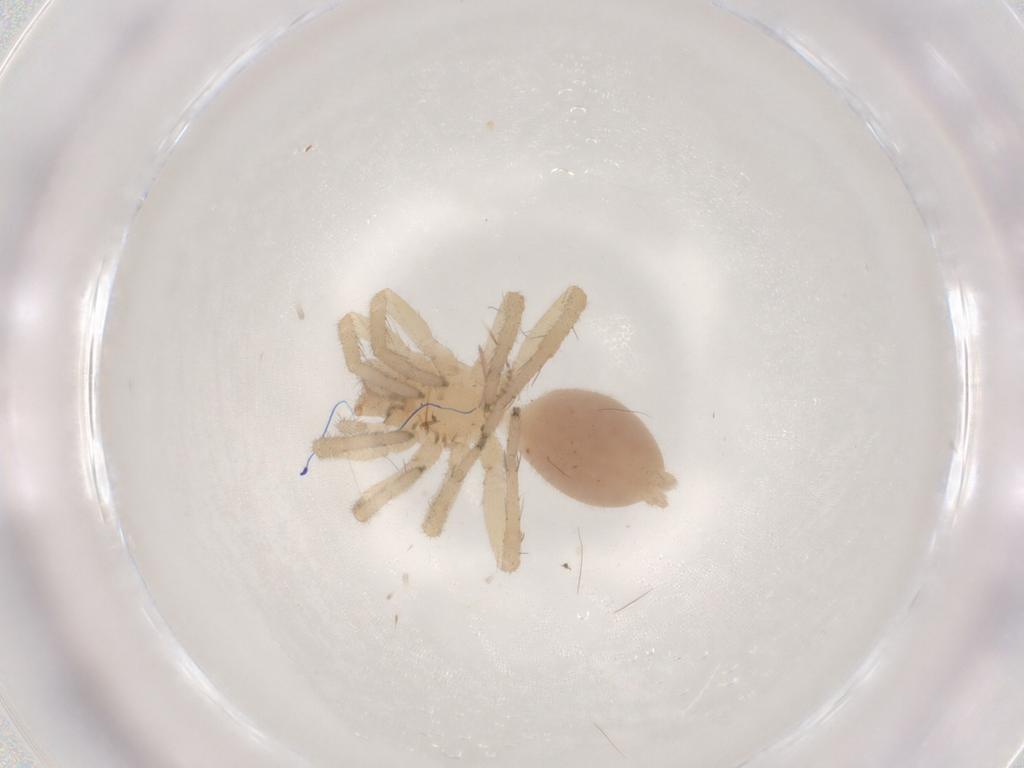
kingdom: Animalia
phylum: Arthropoda
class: Arachnida
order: Araneae
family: Clubionidae
